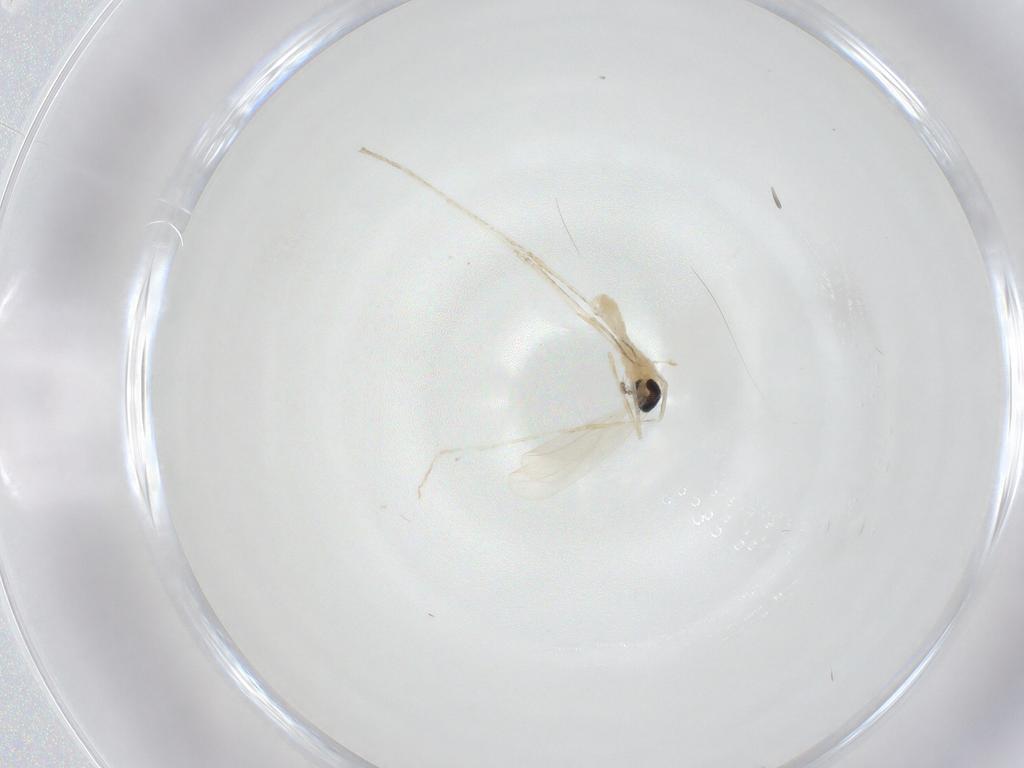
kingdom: Animalia
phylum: Arthropoda
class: Insecta
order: Diptera
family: Cecidomyiidae
